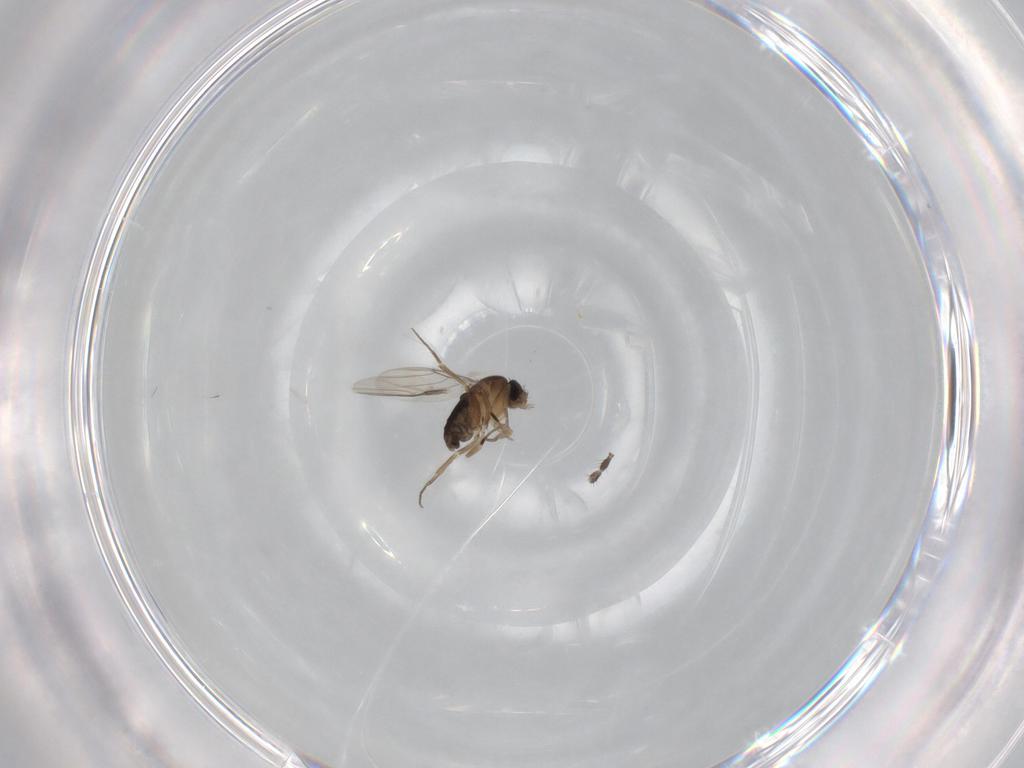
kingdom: Animalia
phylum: Arthropoda
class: Insecta
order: Diptera
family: Limoniidae
